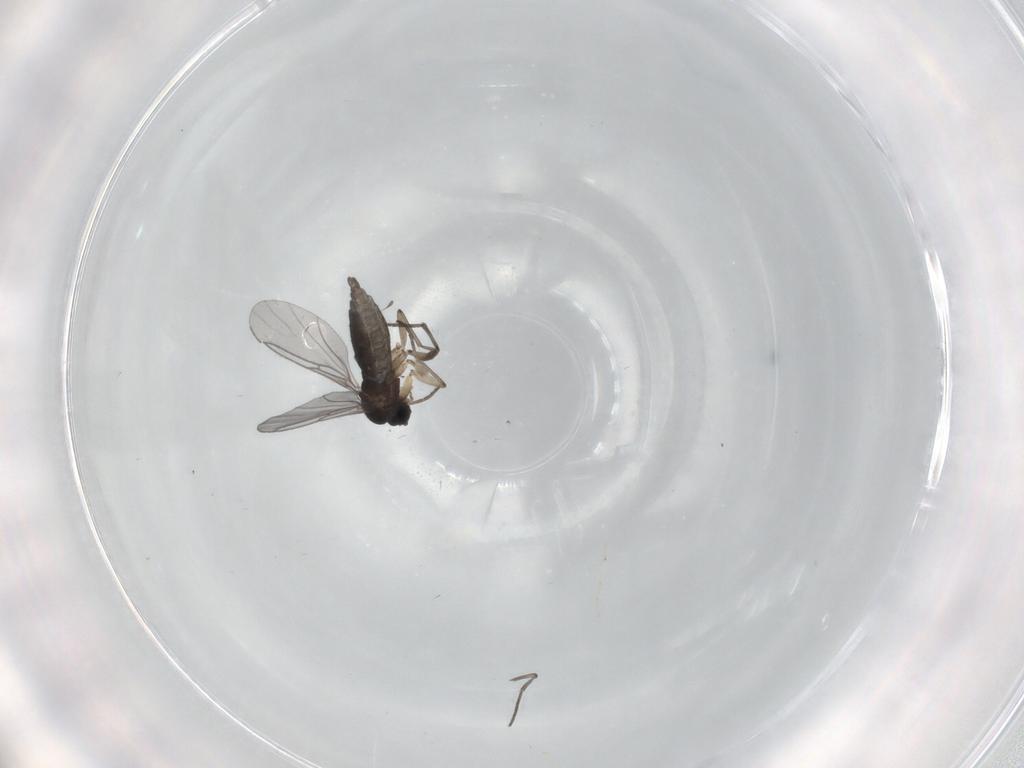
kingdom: Animalia
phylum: Arthropoda
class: Insecta
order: Diptera
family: Sciaridae
